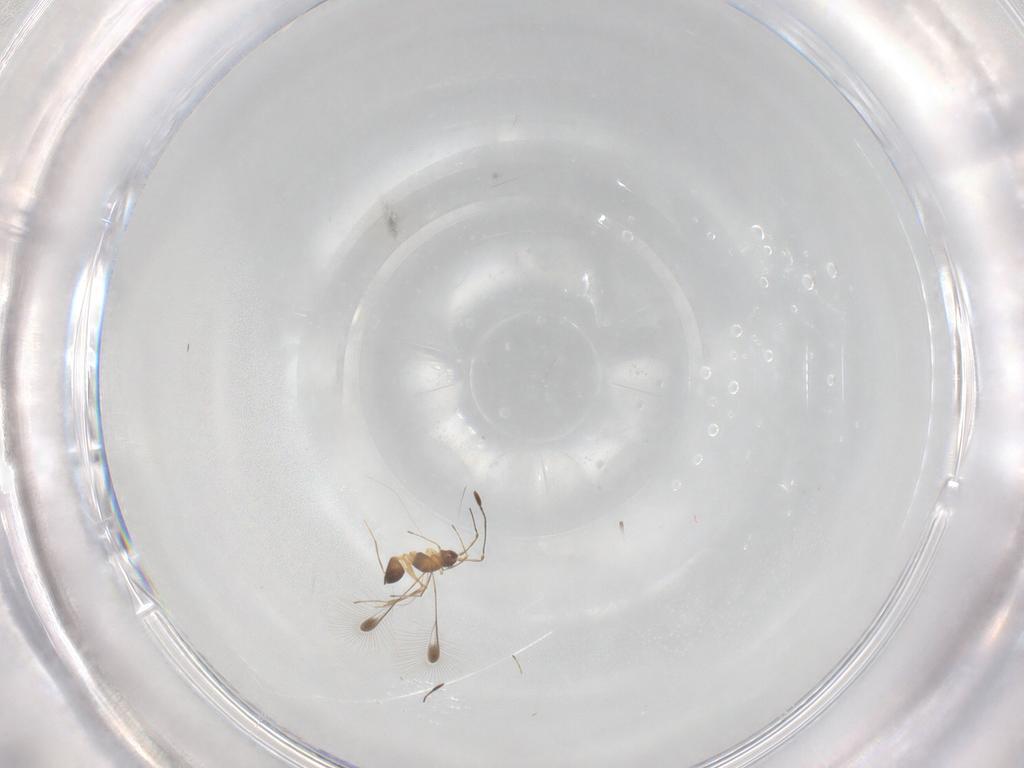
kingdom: Animalia
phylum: Arthropoda
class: Insecta
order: Hymenoptera
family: Mymaridae
